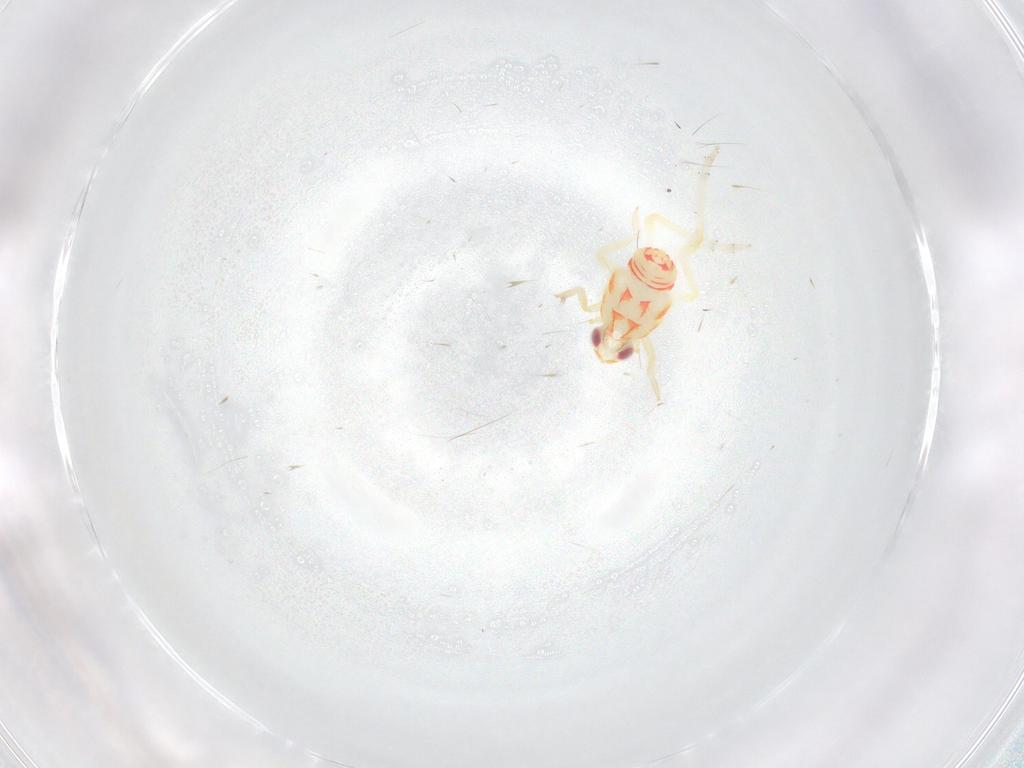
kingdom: Animalia
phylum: Arthropoda
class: Insecta
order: Hemiptera
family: Tropiduchidae
